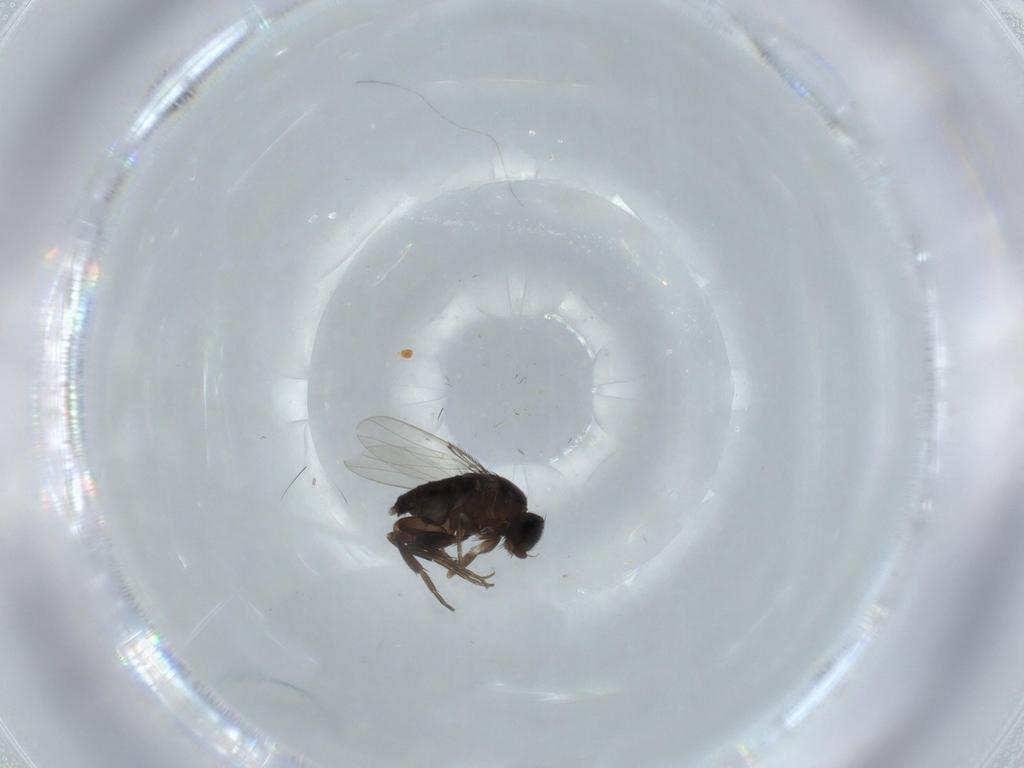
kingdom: Animalia
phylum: Arthropoda
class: Insecta
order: Diptera
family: Phoridae
